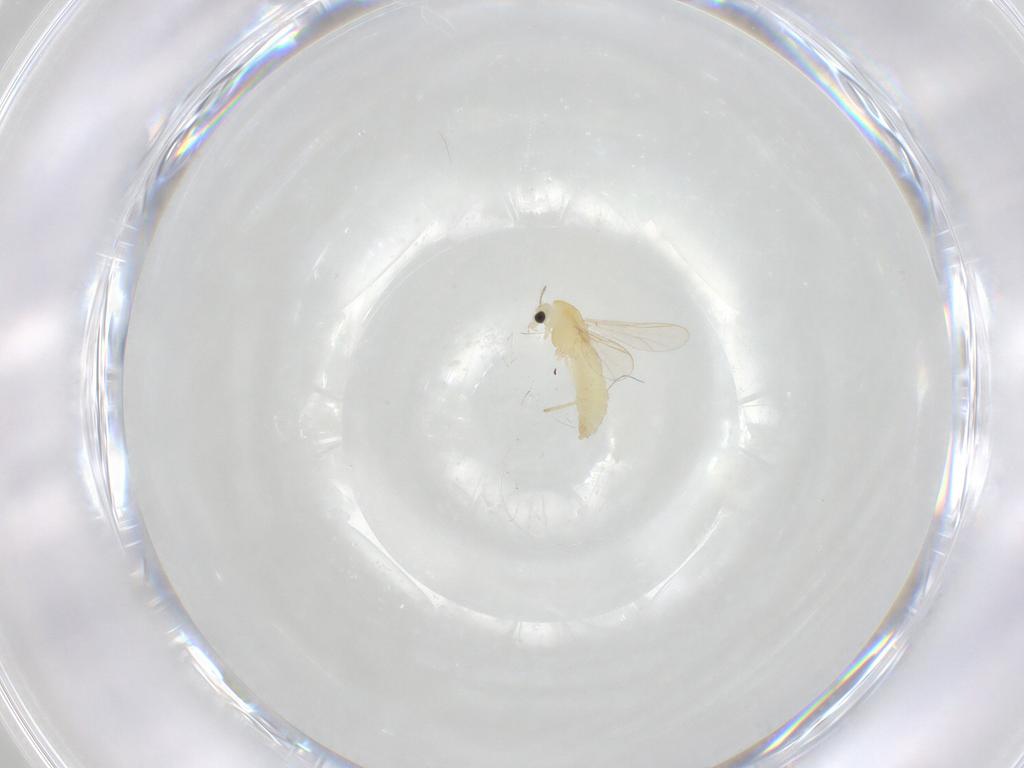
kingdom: Animalia
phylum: Arthropoda
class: Insecta
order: Diptera
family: Chironomidae
